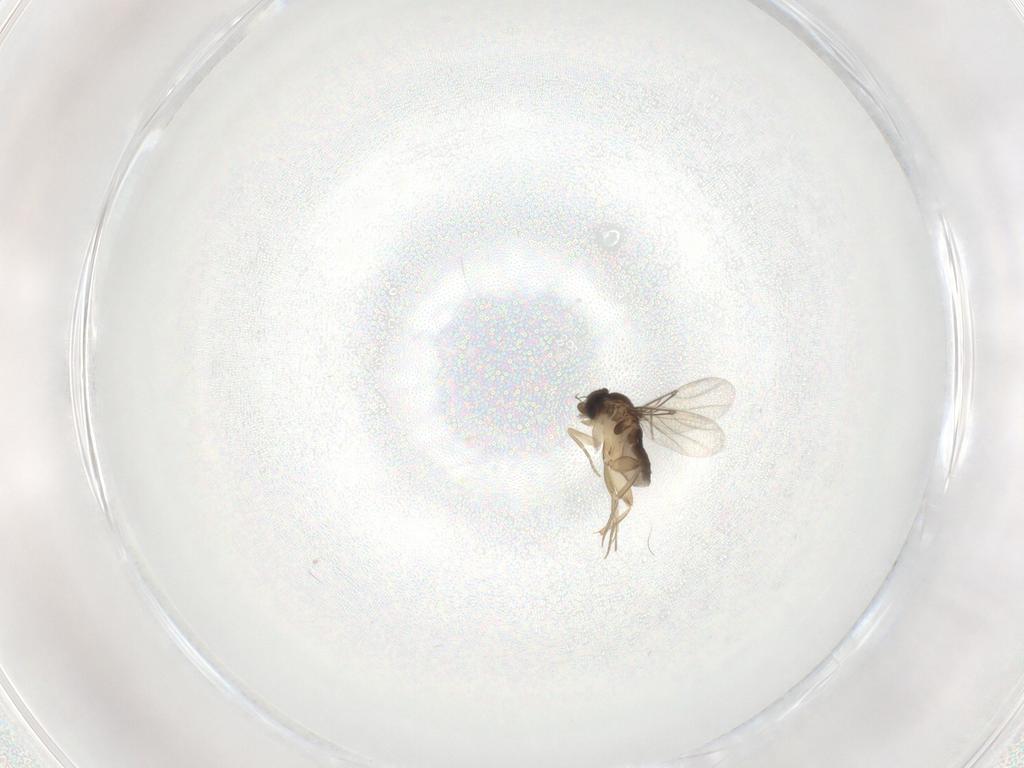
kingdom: Animalia
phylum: Arthropoda
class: Insecta
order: Diptera
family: Phoridae
